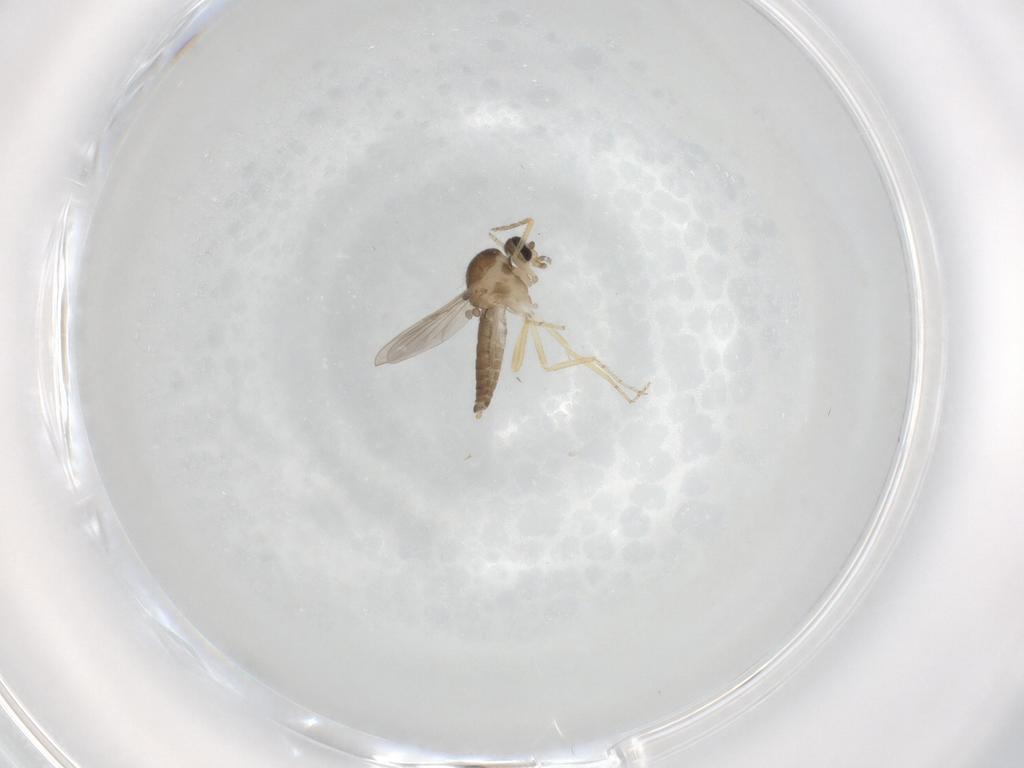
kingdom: Animalia
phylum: Arthropoda
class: Insecta
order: Diptera
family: Ceratopogonidae
